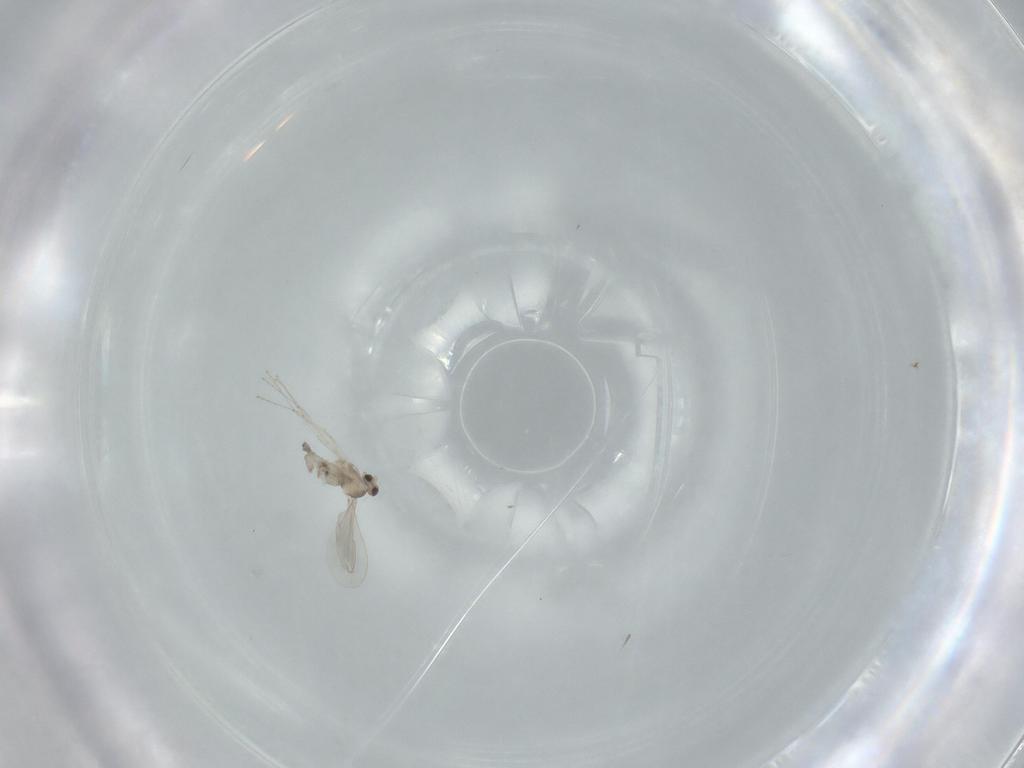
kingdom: Animalia
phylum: Arthropoda
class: Insecta
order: Diptera
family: Cecidomyiidae
